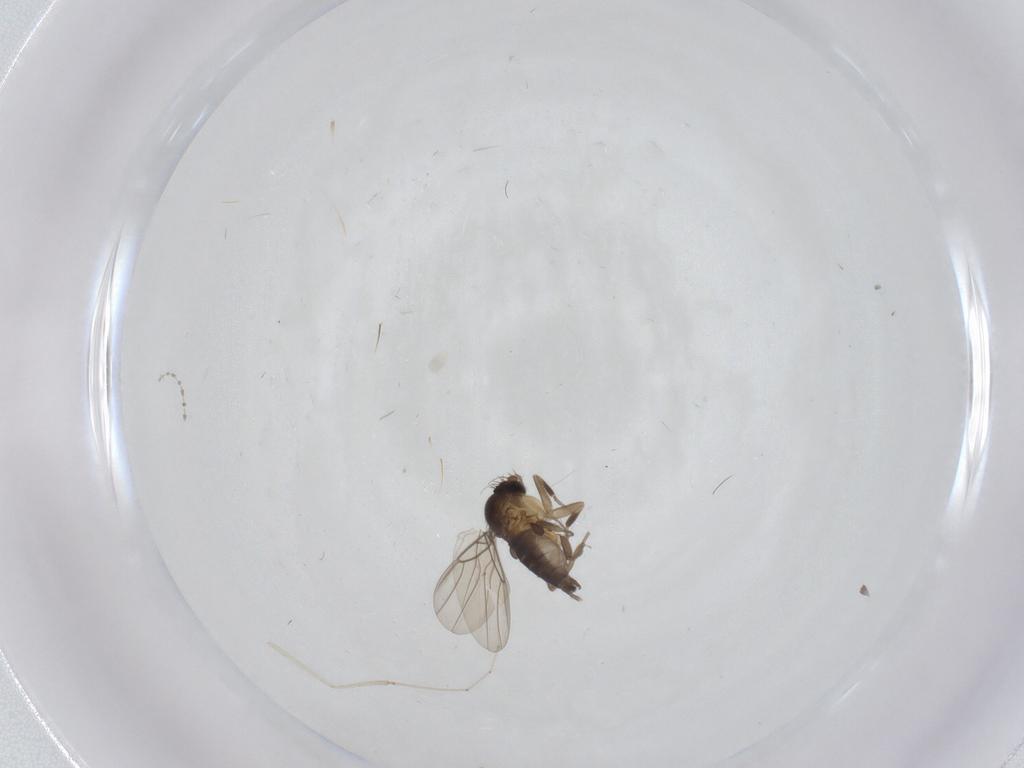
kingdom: Animalia
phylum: Arthropoda
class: Insecta
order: Diptera
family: Phoridae
